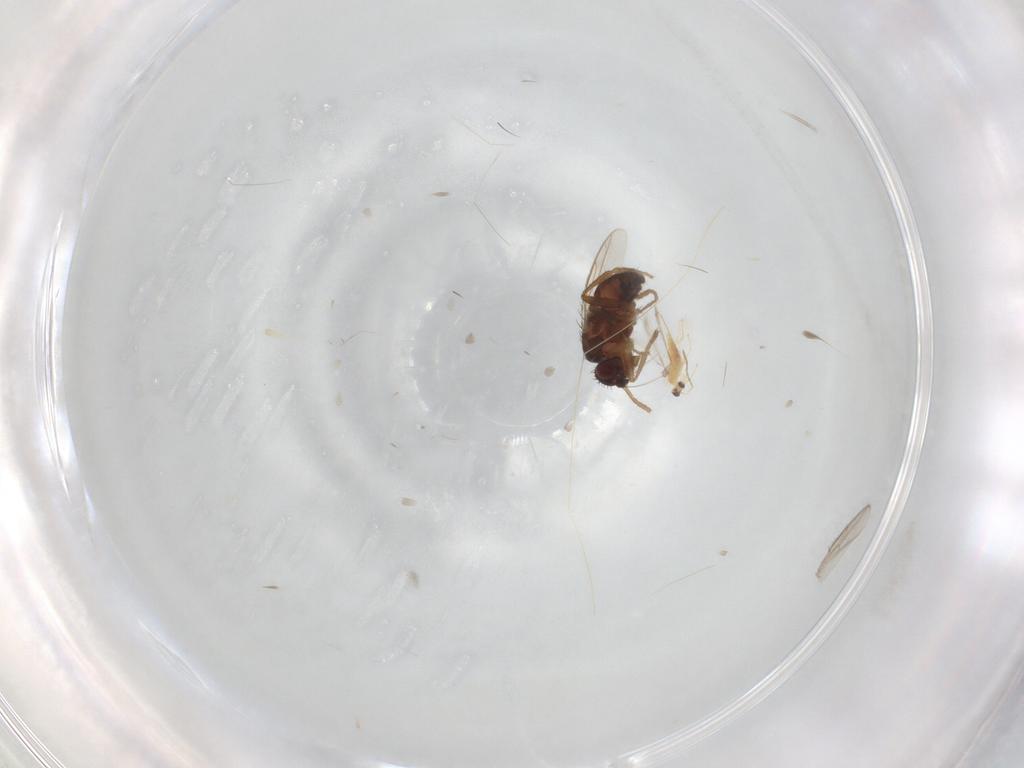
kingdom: Animalia
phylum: Arthropoda
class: Insecta
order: Diptera
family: Sphaeroceridae
